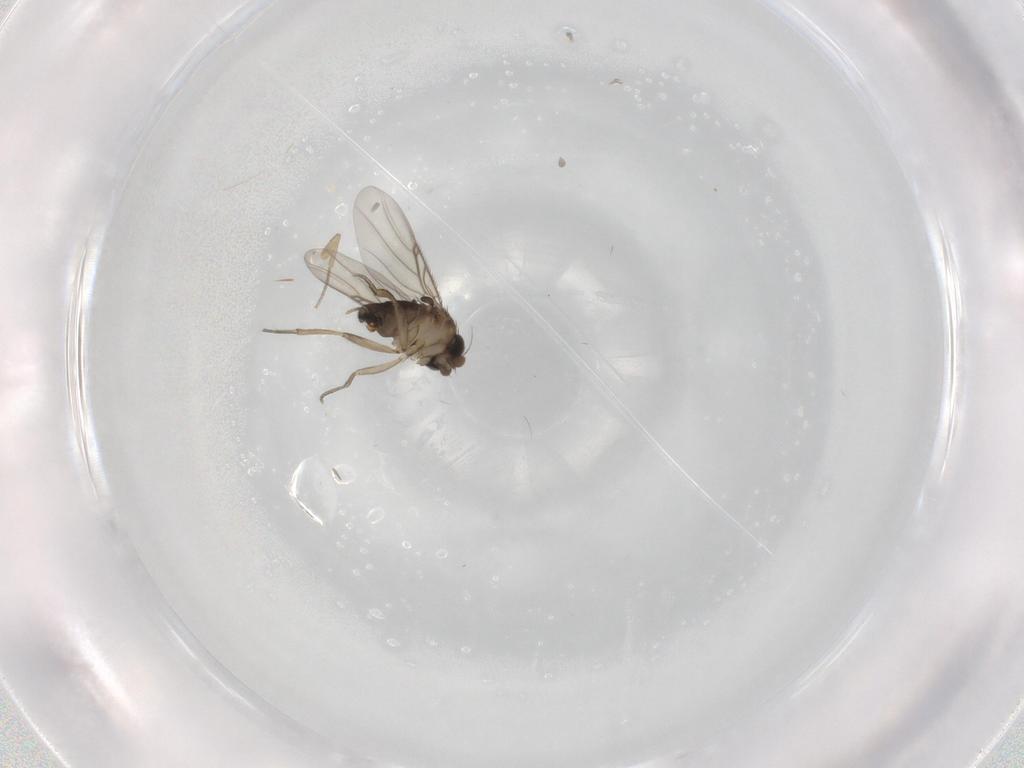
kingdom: Animalia
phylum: Arthropoda
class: Insecta
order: Diptera
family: Phoridae
